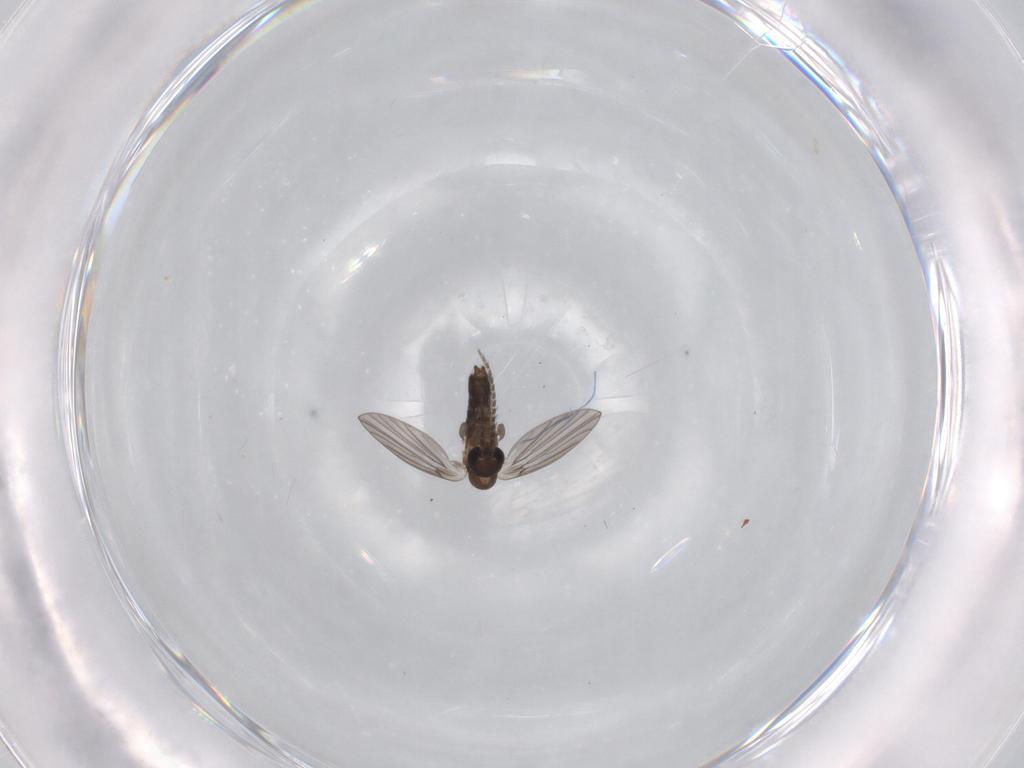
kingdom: Animalia
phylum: Arthropoda
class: Insecta
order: Diptera
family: Psychodidae
